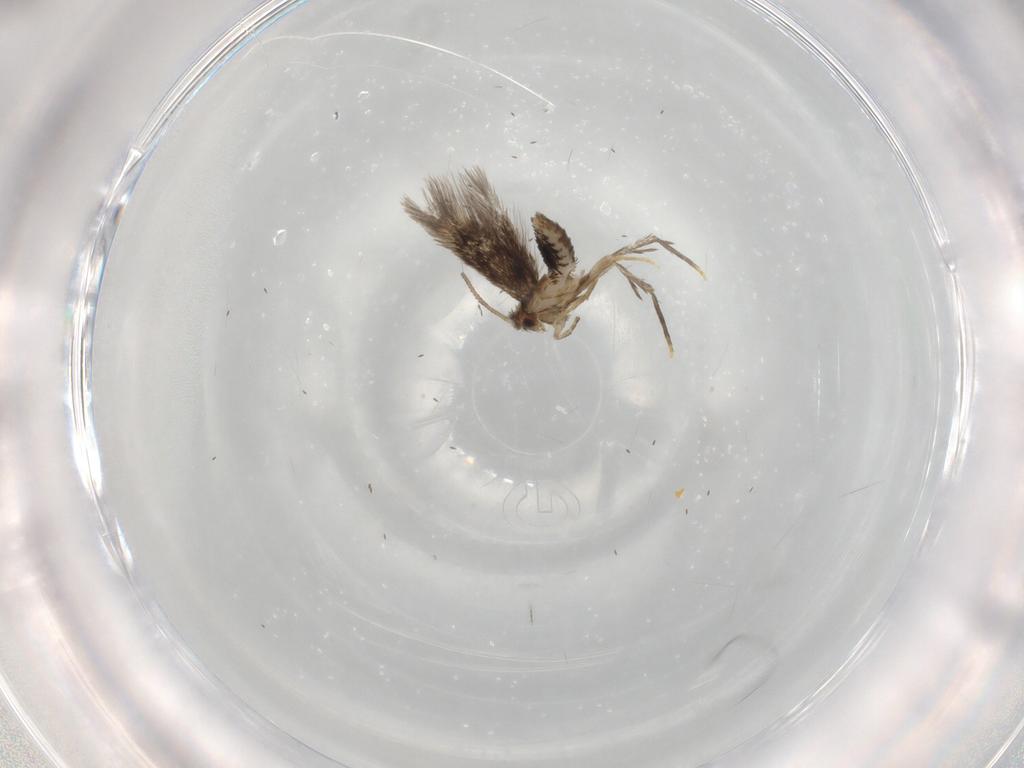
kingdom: Animalia
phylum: Arthropoda
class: Insecta
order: Lepidoptera
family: Nepticulidae
